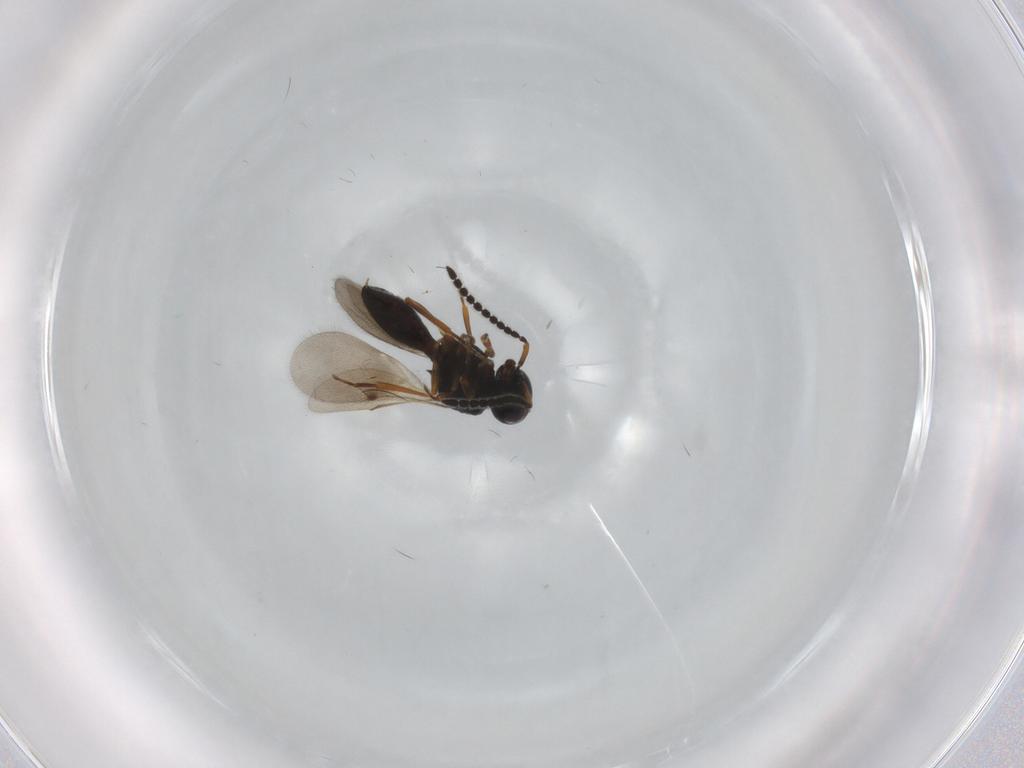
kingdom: Animalia
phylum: Arthropoda
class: Insecta
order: Hymenoptera
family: Scelionidae
